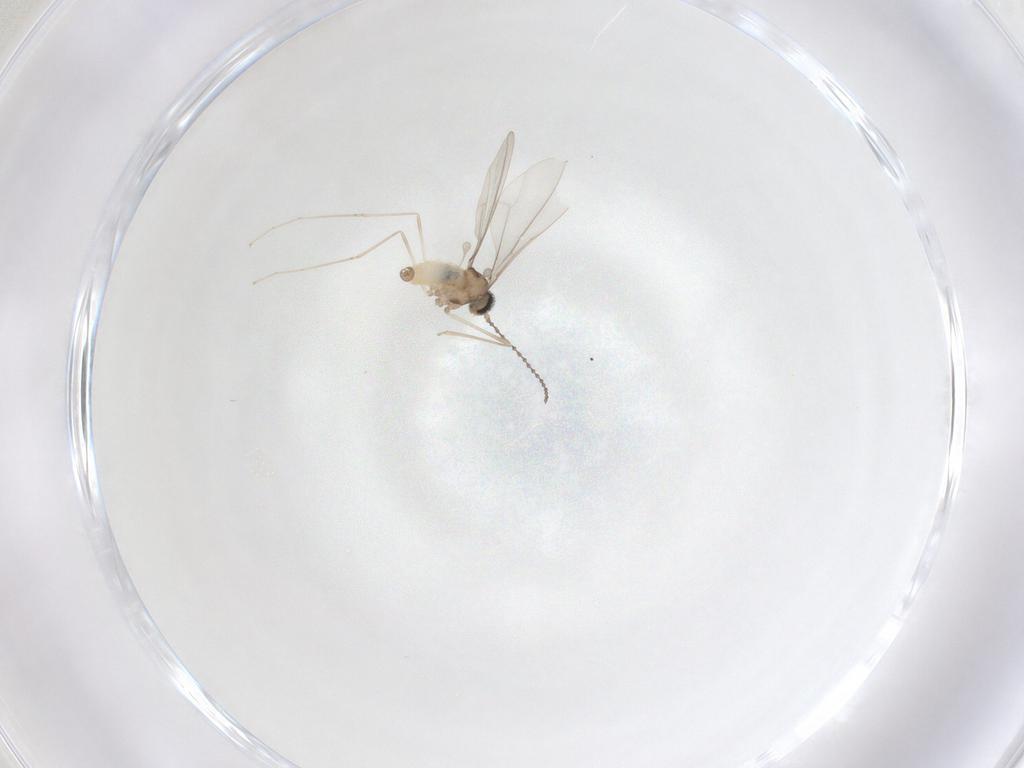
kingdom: Animalia
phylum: Arthropoda
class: Insecta
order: Diptera
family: Cecidomyiidae
